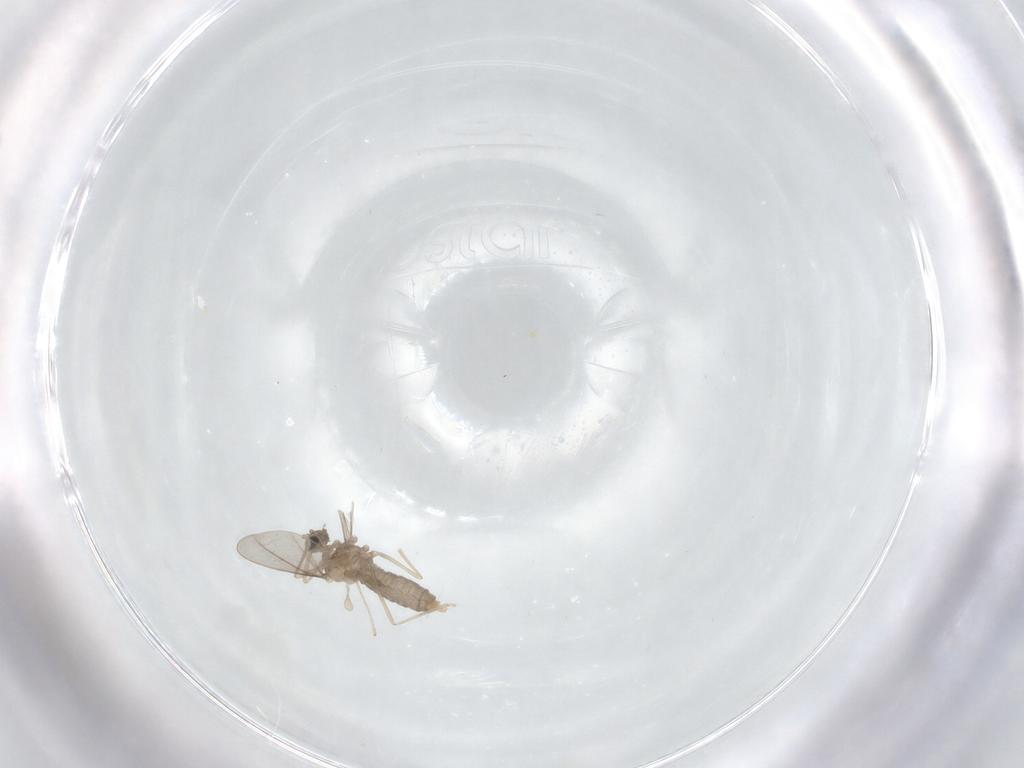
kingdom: Animalia
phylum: Arthropoda
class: Insecta
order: Diptera
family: Cecidomyiidae
